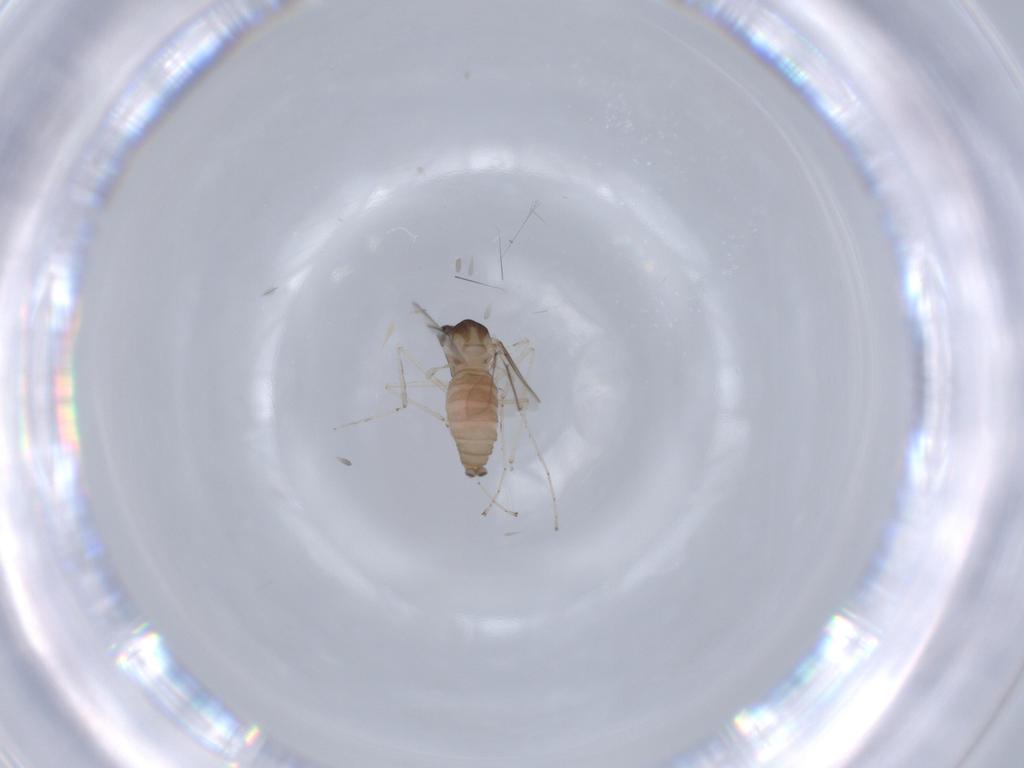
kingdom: Animalia
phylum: Arthropoda
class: Insecta
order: Diptera
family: Cecidomyiidae
